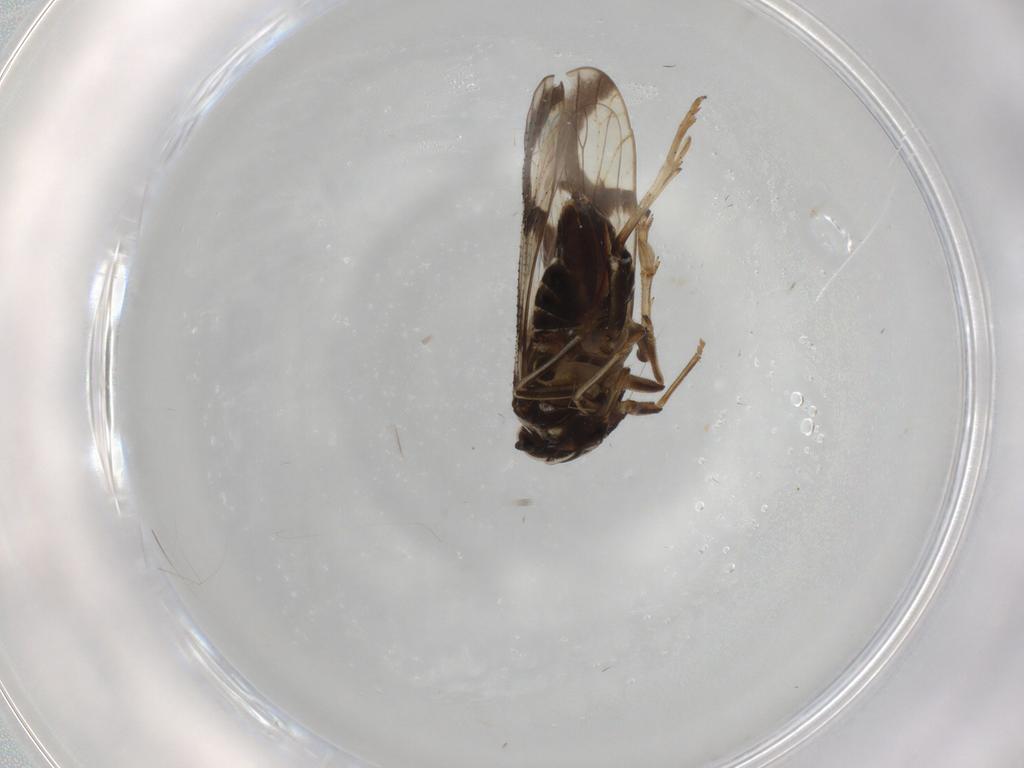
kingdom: Animalia
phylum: Arthropoda
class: Insecta
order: Hemiptera
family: Delphacidae
